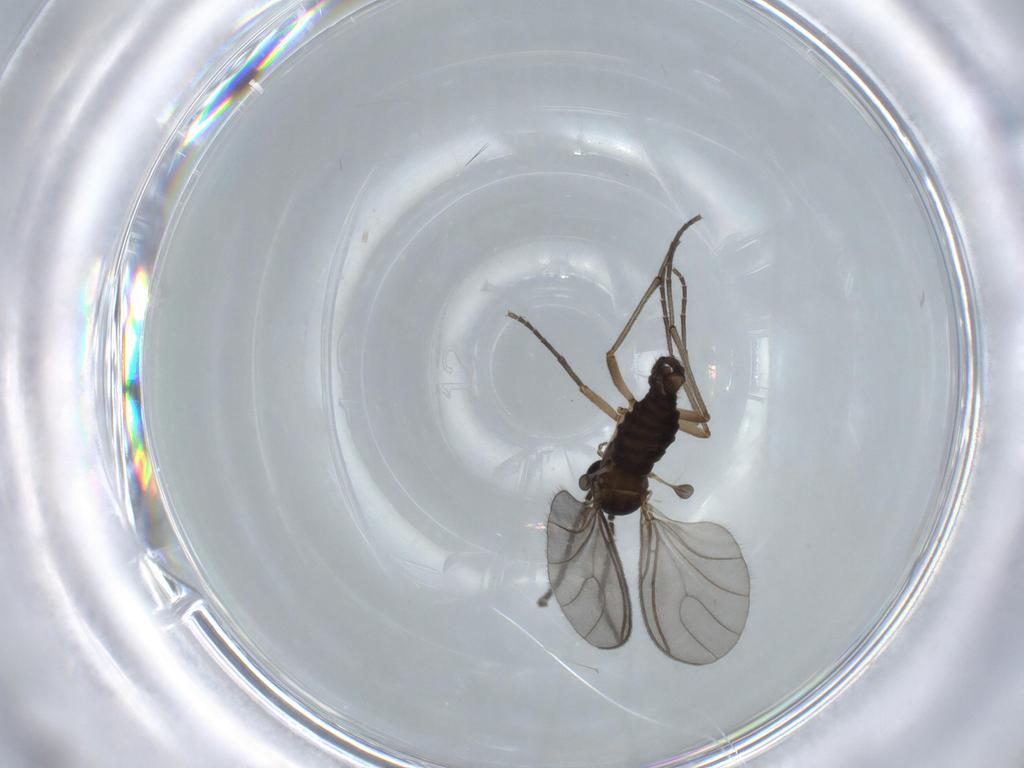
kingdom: Animalia
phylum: Arthropoda
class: Insecta
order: Diptera
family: Sciaridae
